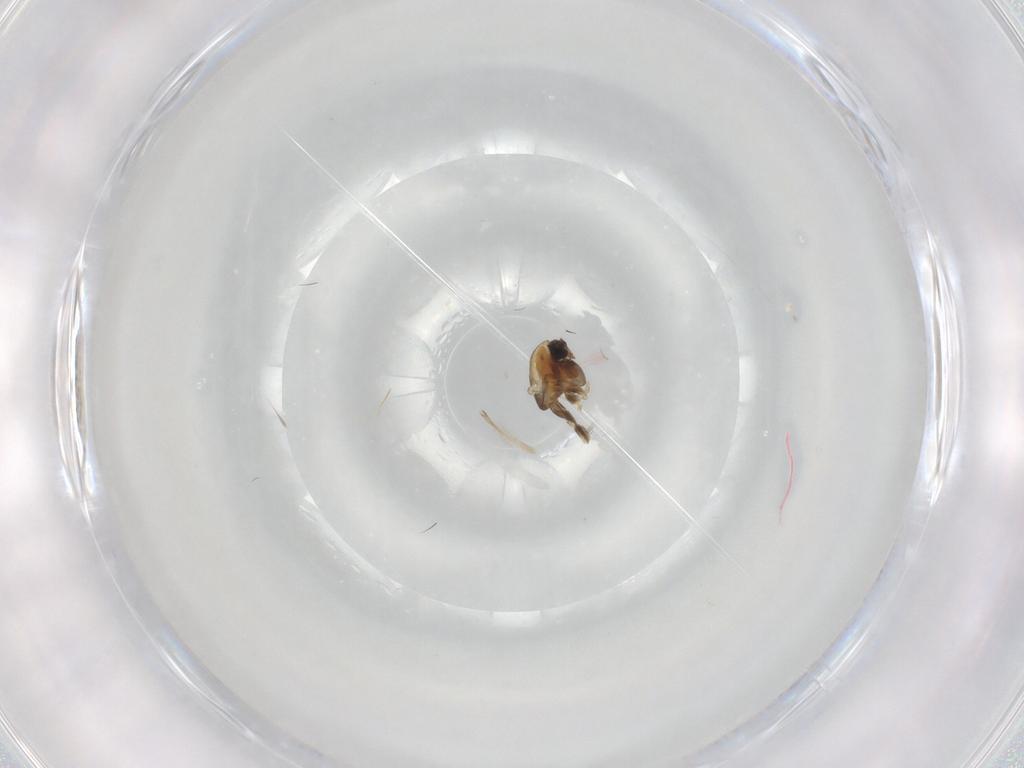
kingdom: Animalia
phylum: Arthropoda
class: Insecta
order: Diptera
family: Chironomidae
